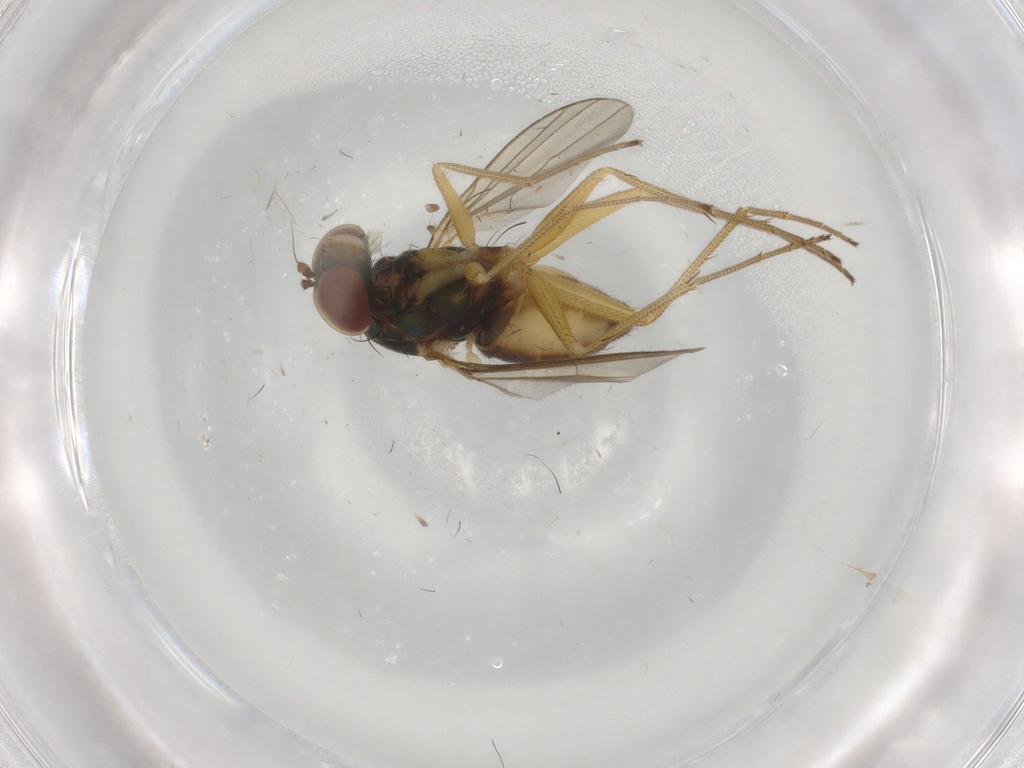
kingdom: Animalia
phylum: Arthropoda
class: Insecta
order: Diptera
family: Dolichopodidae
